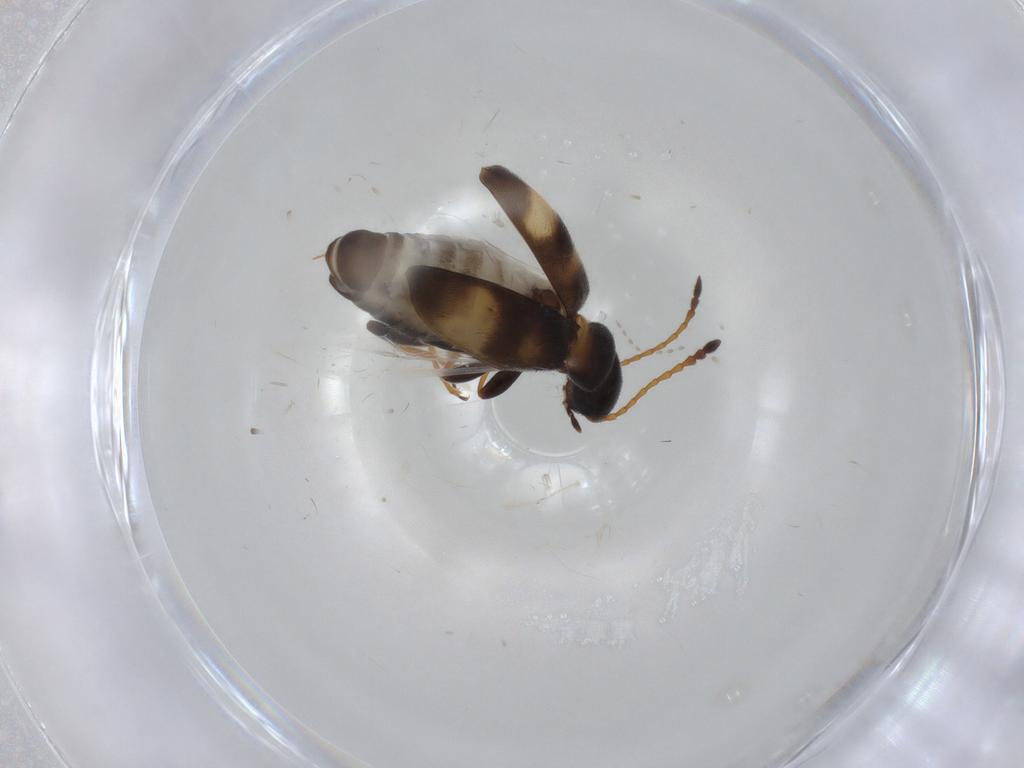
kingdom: Animalia
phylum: Arthropoda
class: Insecta
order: Coleoptera
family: Anthicidae
